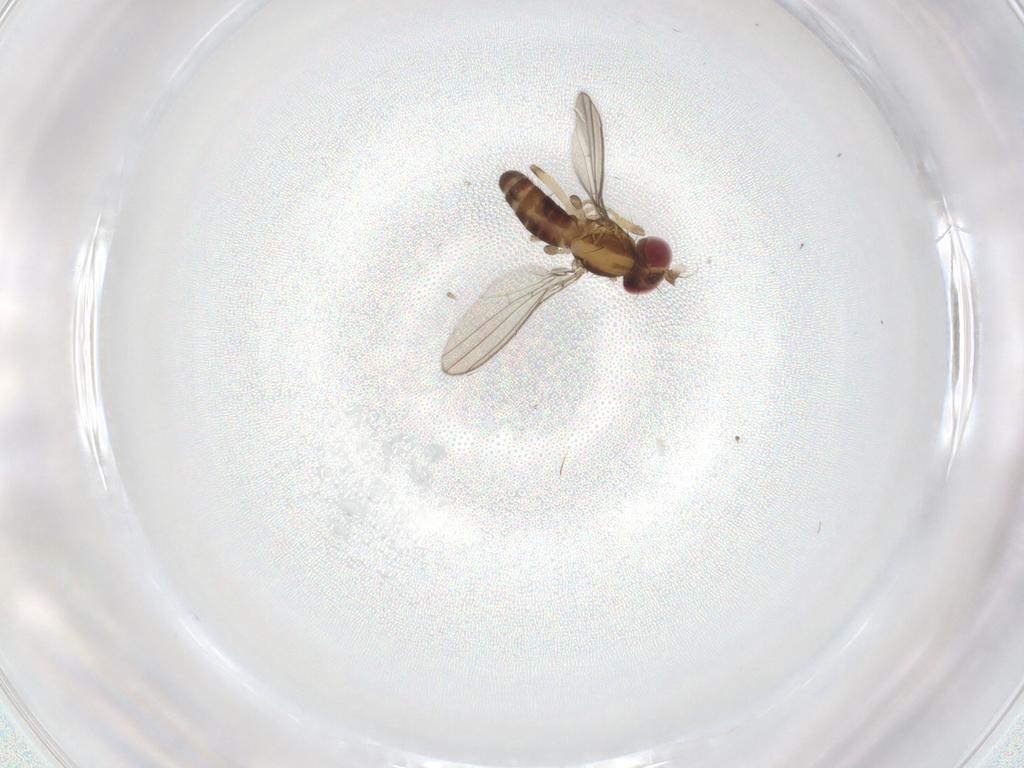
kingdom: Animalia
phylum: Arthropoda
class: Insecta
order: Diptera
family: Anthomyzidae
